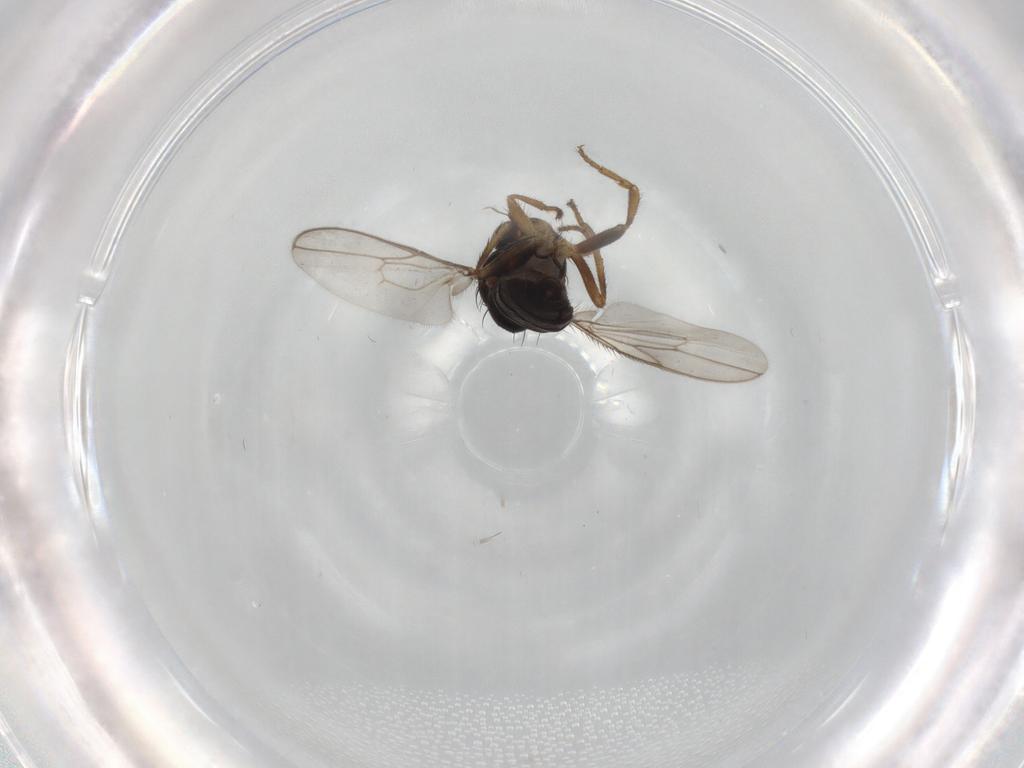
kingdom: Animalia
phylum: Arthropoda
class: Insecta
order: Diptera
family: Sphaeroceridae
